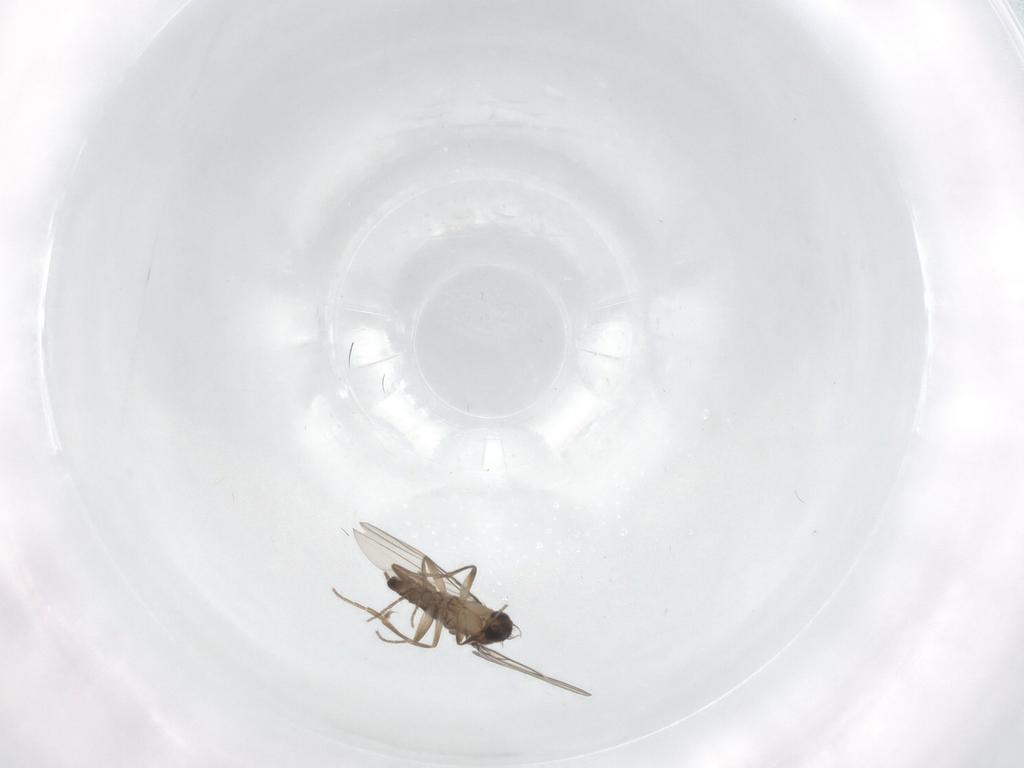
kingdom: Animalia
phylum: Arthropoda
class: Insecta
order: Diptera
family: Phoridae
